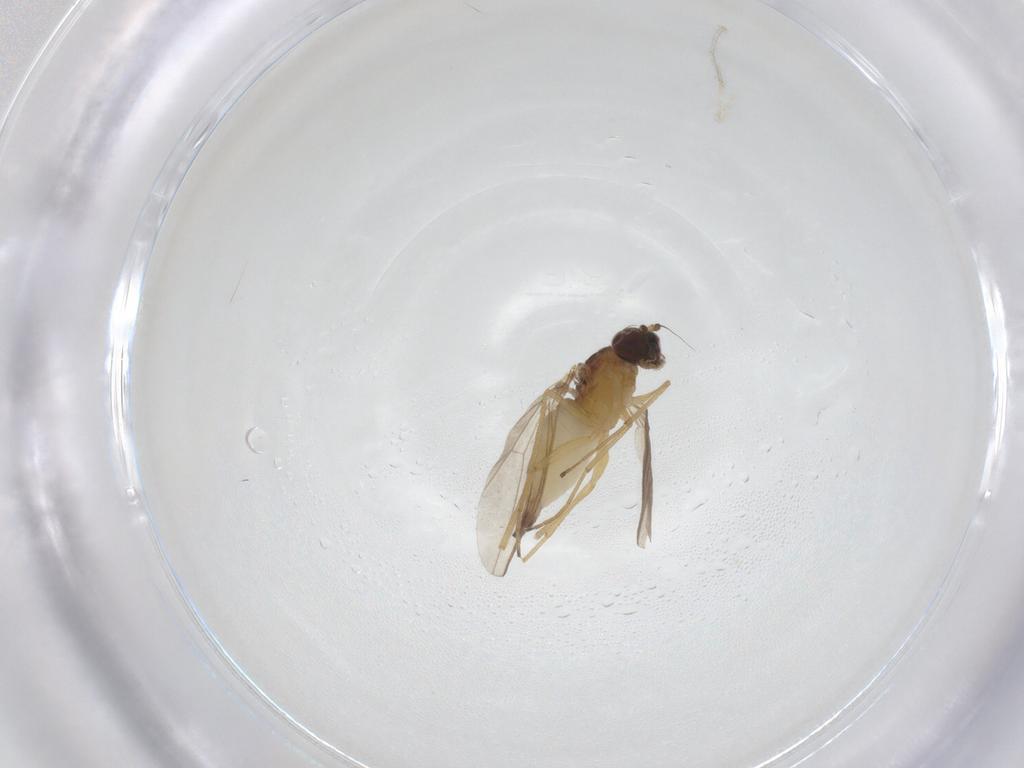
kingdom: Animalia
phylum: Arthropoda
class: Insecta
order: Diptera
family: Dolichopodidae
